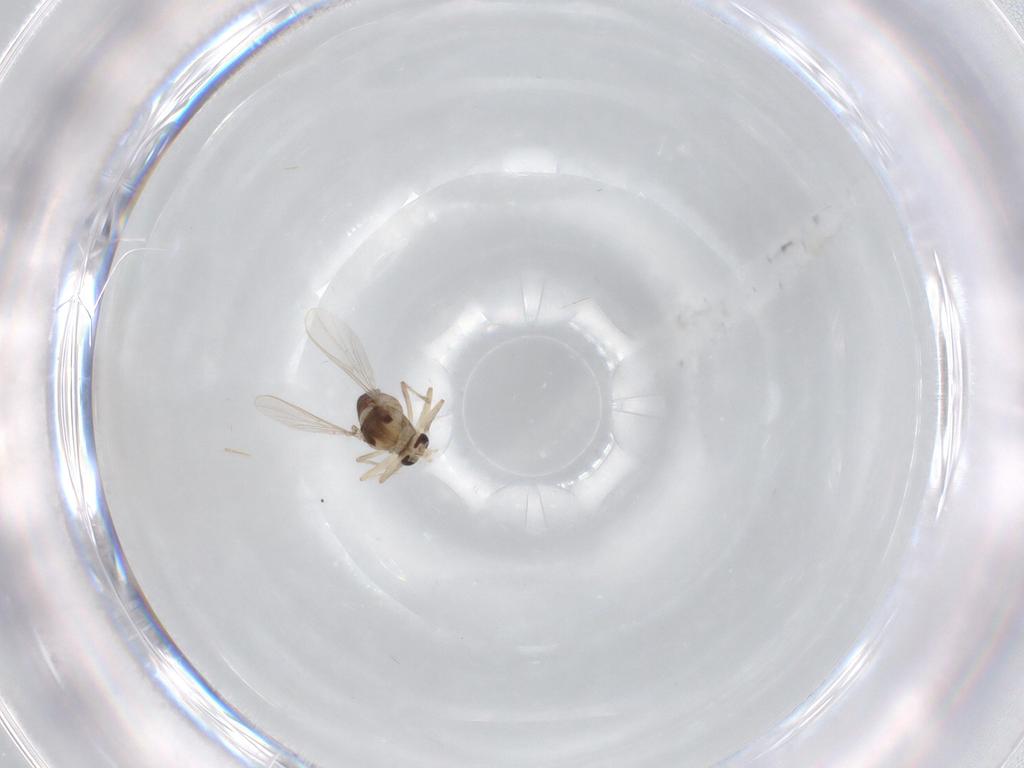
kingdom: Animalia
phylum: Arthropoda
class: Insecta
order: Diptera
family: Chironomidae
